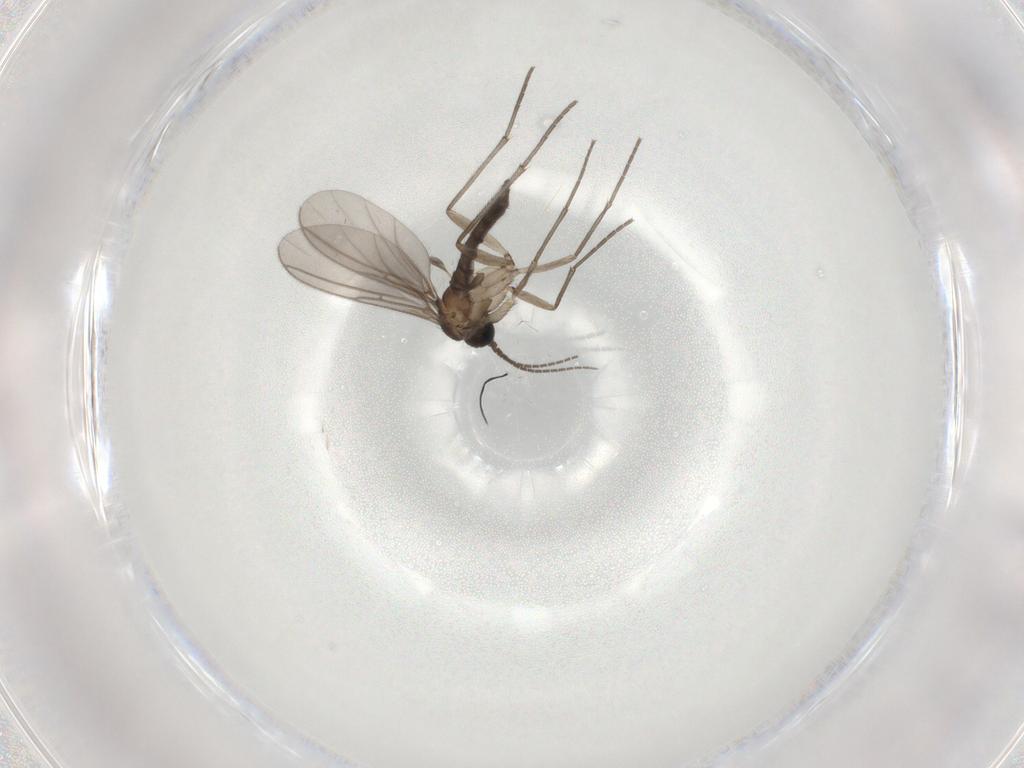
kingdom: Animalia
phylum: Arthropoda
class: Insecta
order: Diptera
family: Sciaridae
